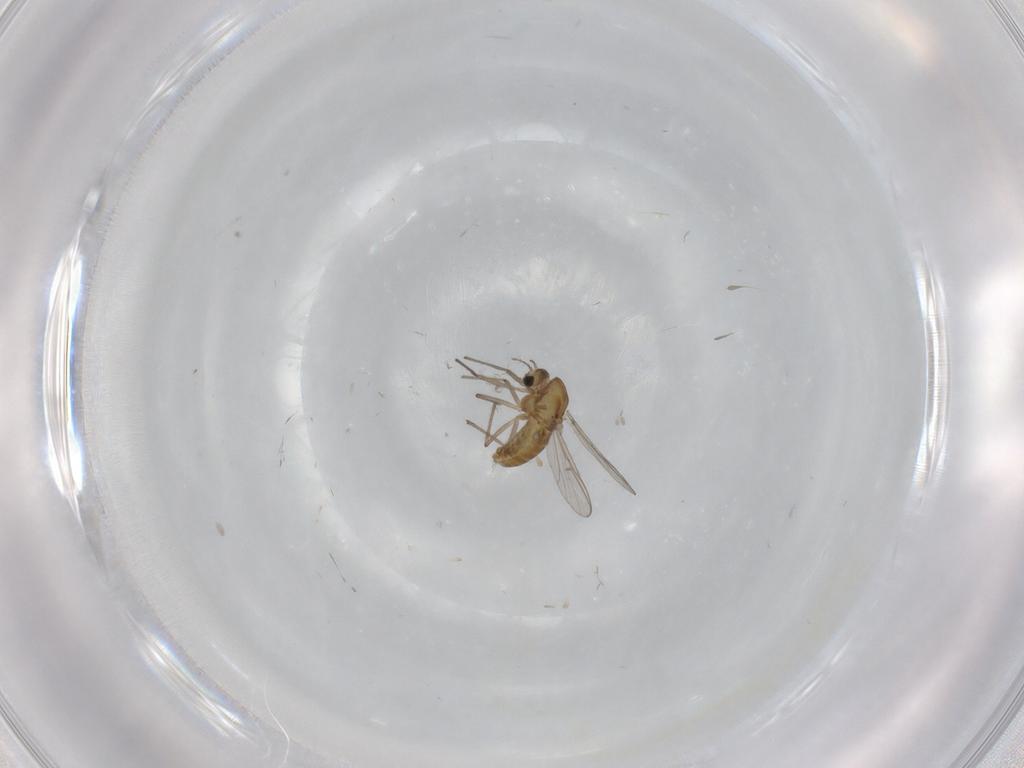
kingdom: Animalia
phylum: Arthropoda
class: Insecta
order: Diptera
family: Chironomidae
